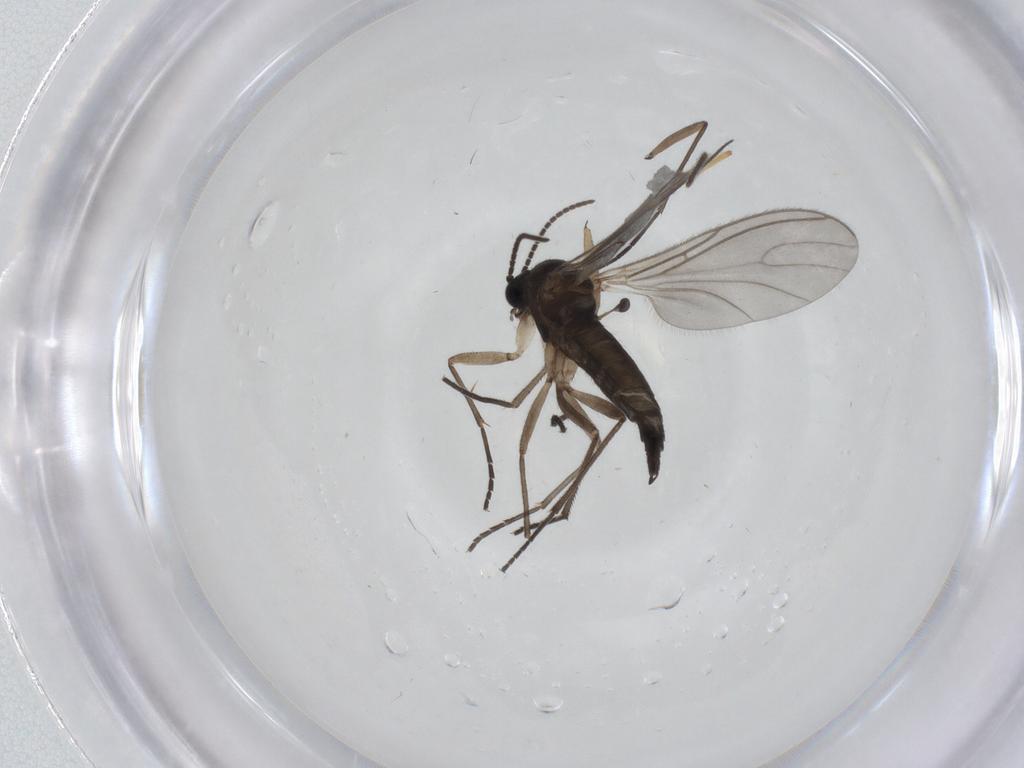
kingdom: Animalia
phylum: Arthropoda
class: Insecta
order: Diptera
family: Sciaridae
